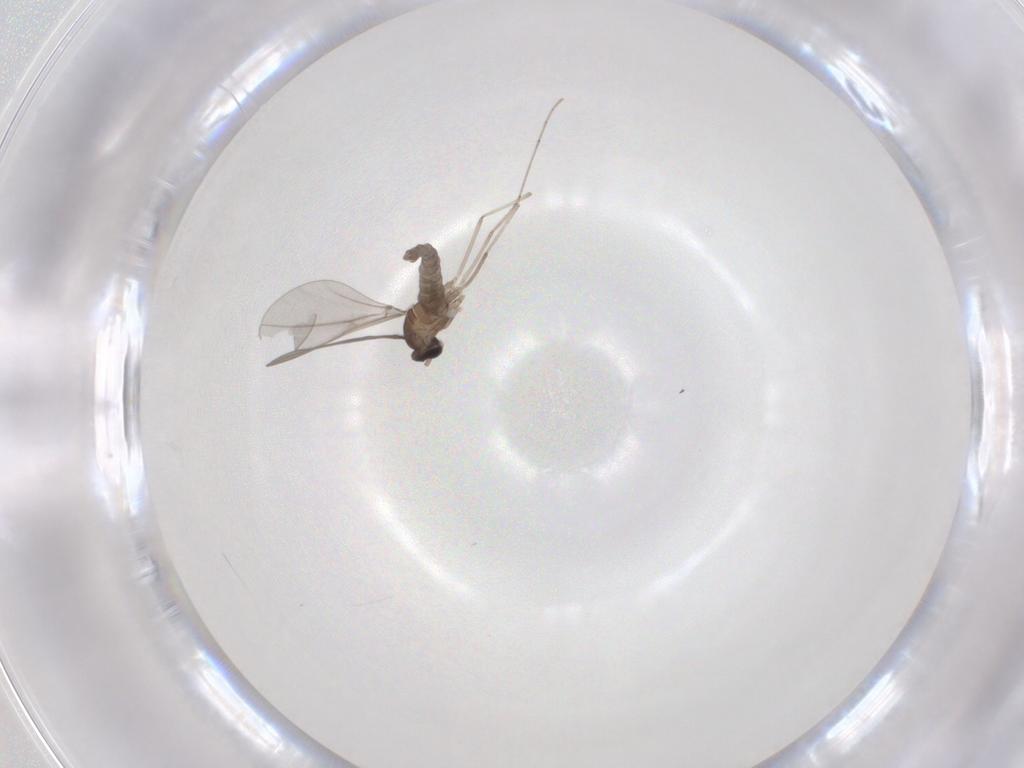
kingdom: Animalia
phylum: Arthropoda
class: Insecta
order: Diptera
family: Cecidomyiidae
